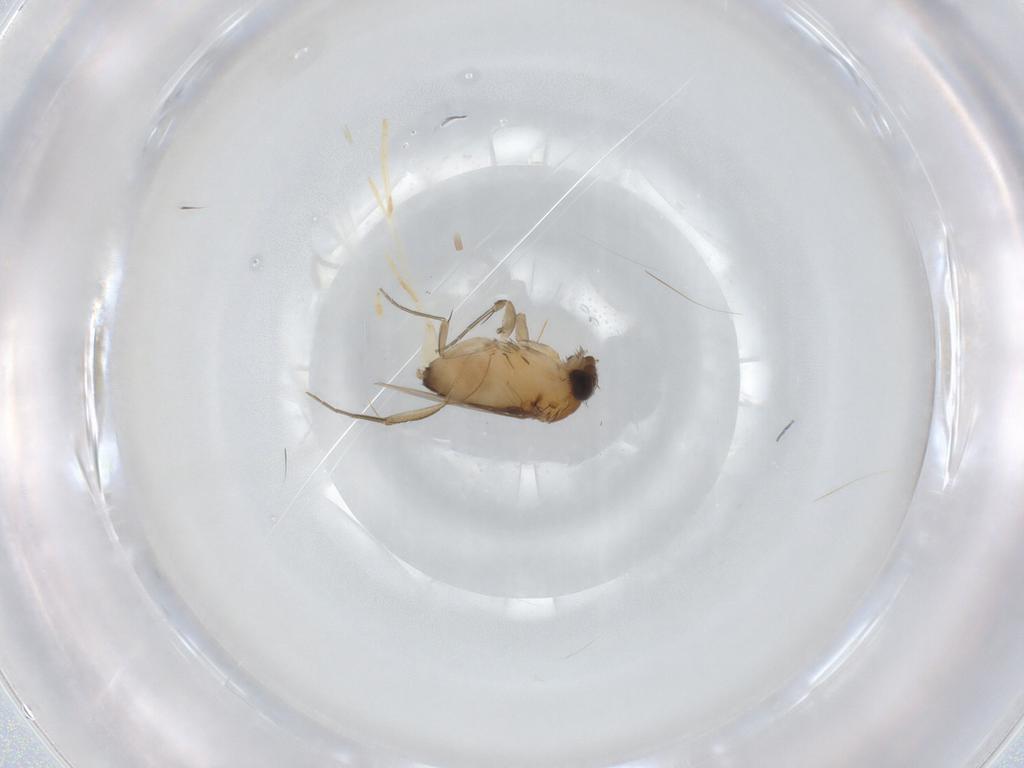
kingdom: Animalia
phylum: Arthropoda
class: Insecta
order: Diptera
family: Phoridae
